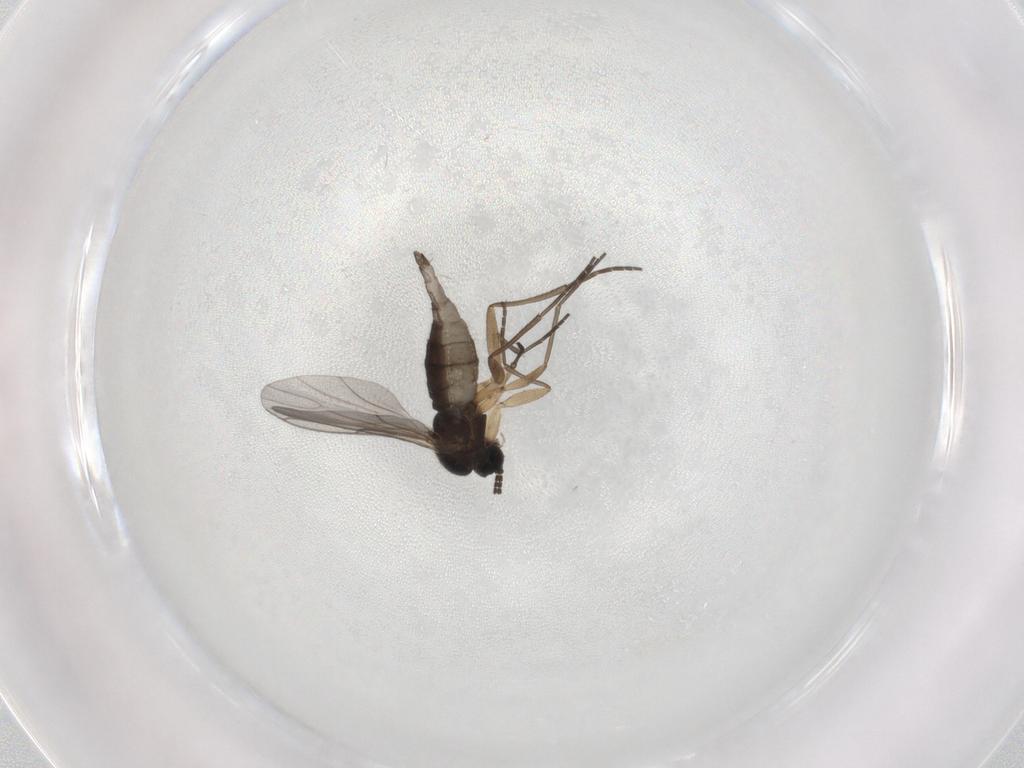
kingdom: Animalia
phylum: Arthropoda
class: Insecta
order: Diptera
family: Sciaridae
